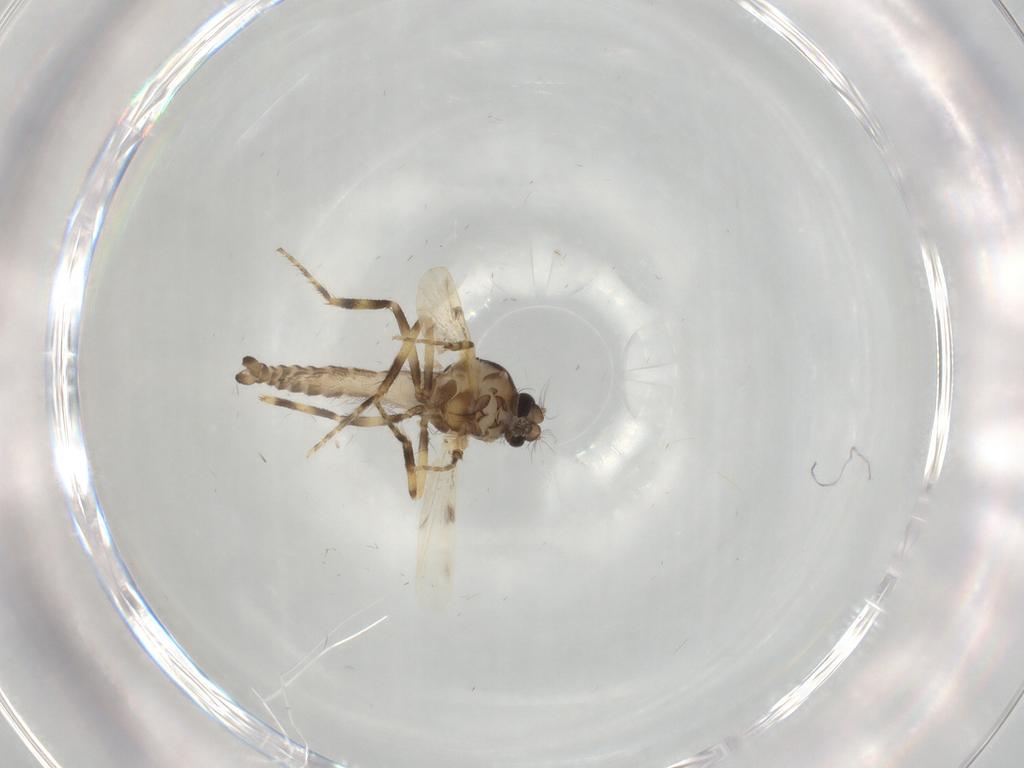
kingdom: Animalia
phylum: Arthropoda
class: Insecta
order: Diptera
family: Ceratopogonidae
